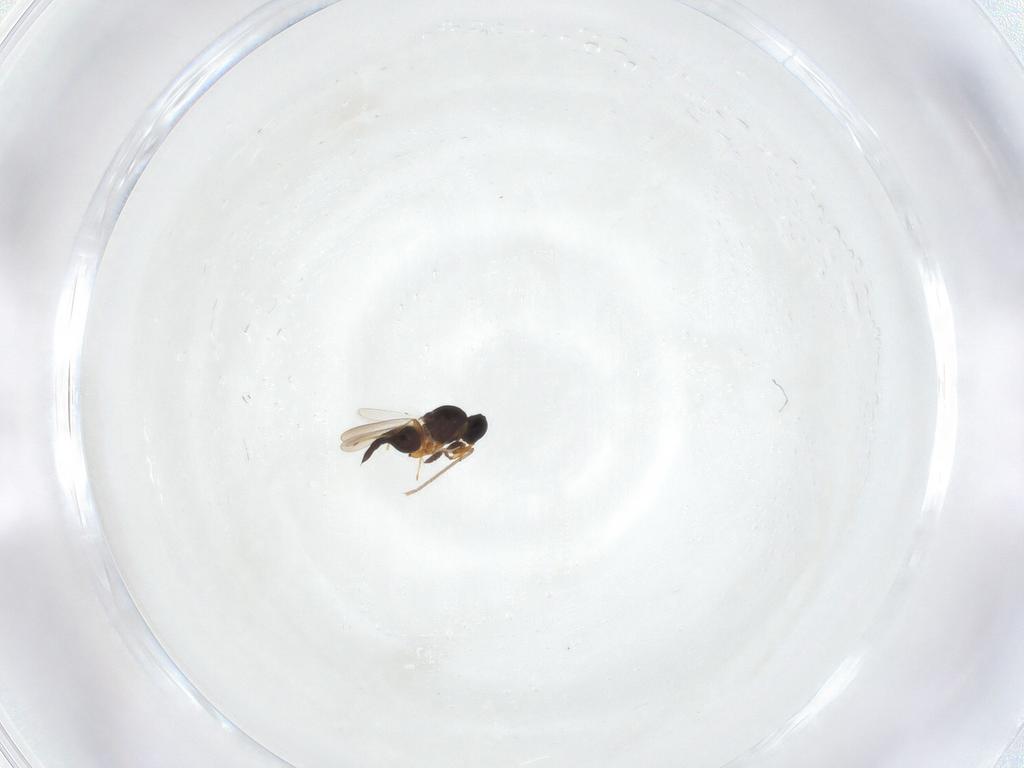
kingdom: Animalia
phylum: Arthropoda
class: Insecta
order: Hymenoptera
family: Platygastridae
